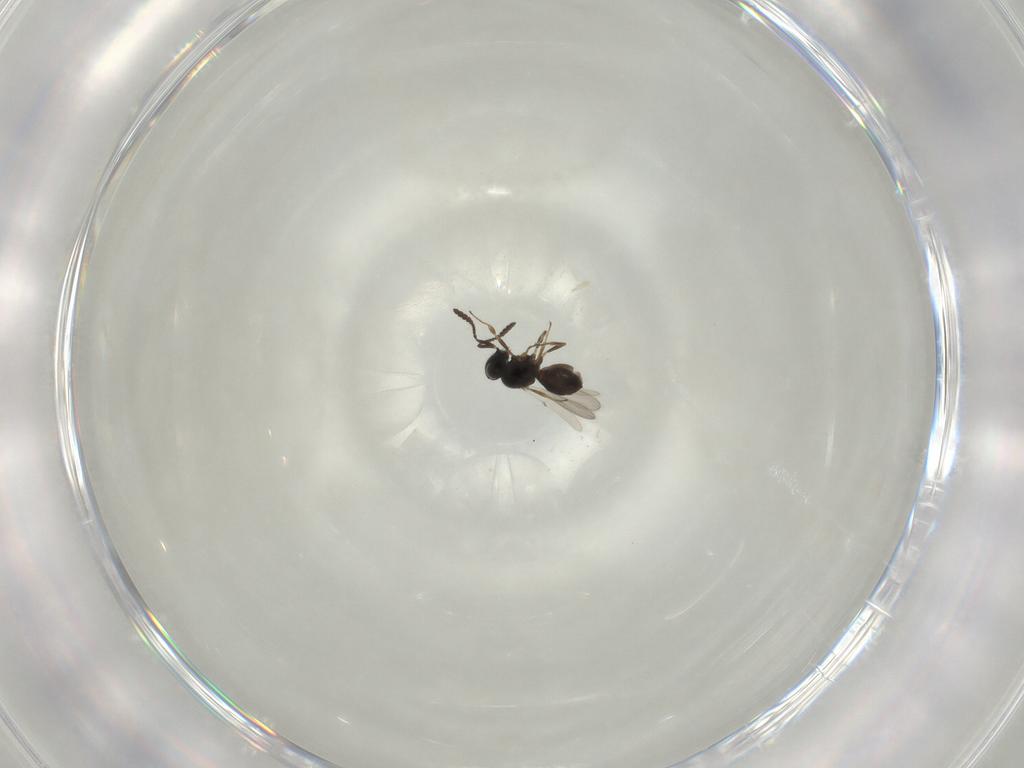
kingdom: Animalia
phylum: Arthropoda
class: Insecta
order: Hymenoptera
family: Scelionidae
